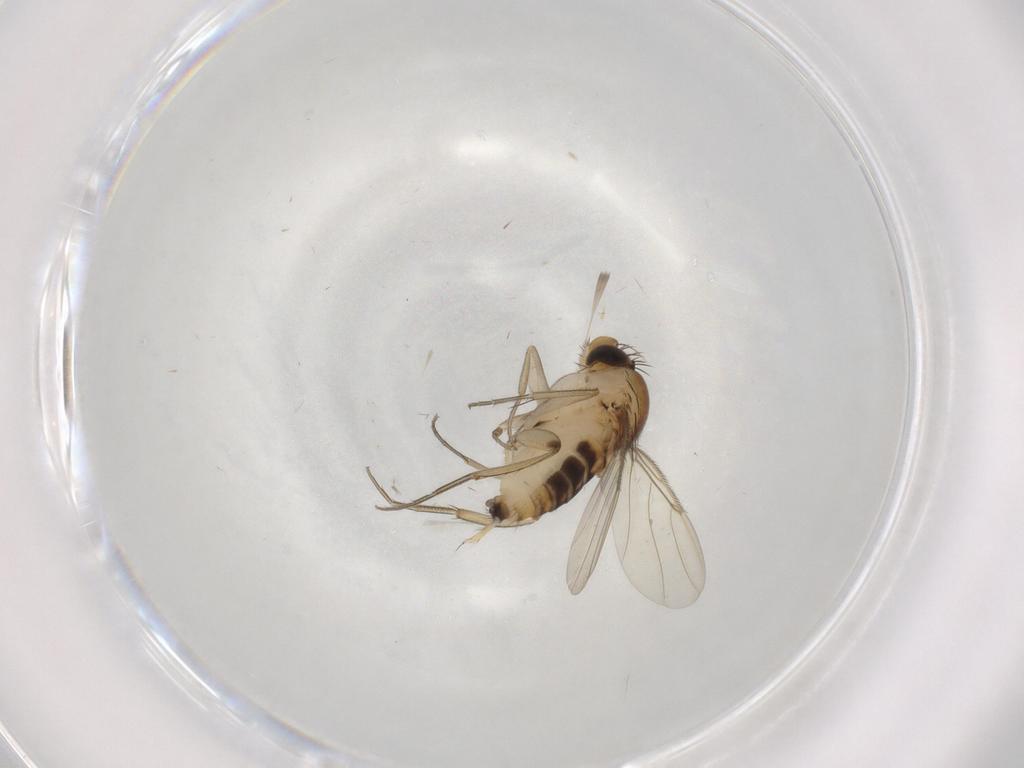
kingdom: Animalia
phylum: Arthropoda
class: Insecta
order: Diptera
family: Phoridae
